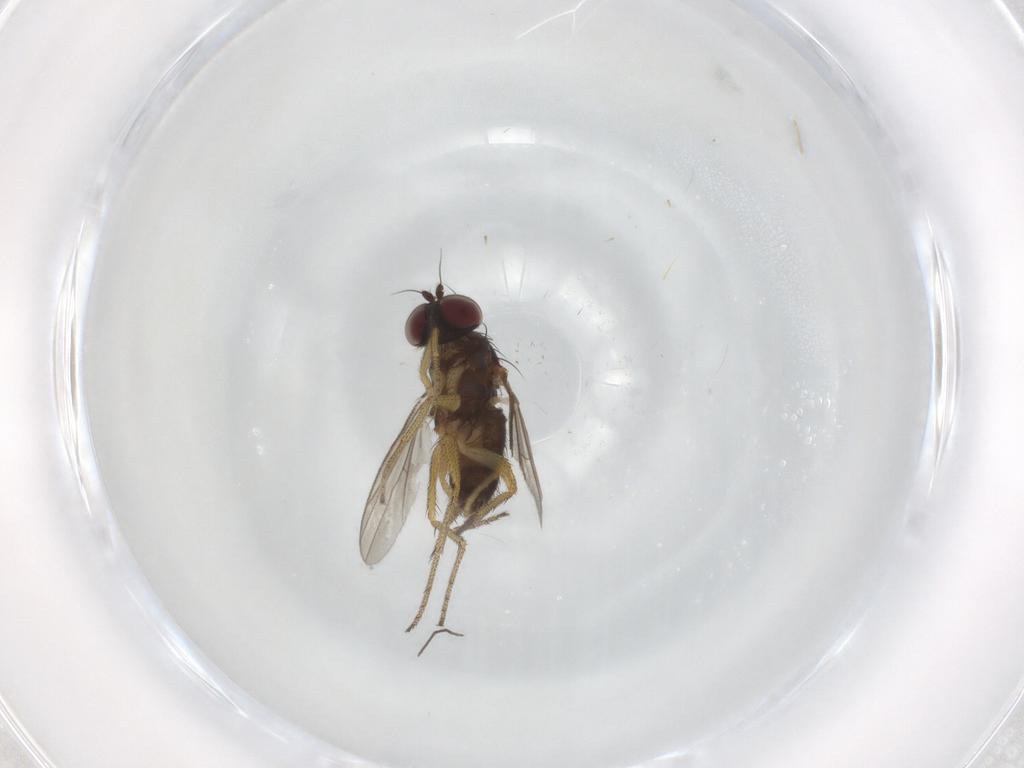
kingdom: Animalia
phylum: Arthropoda
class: Insecta
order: Diptera
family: Dolichopodidae
